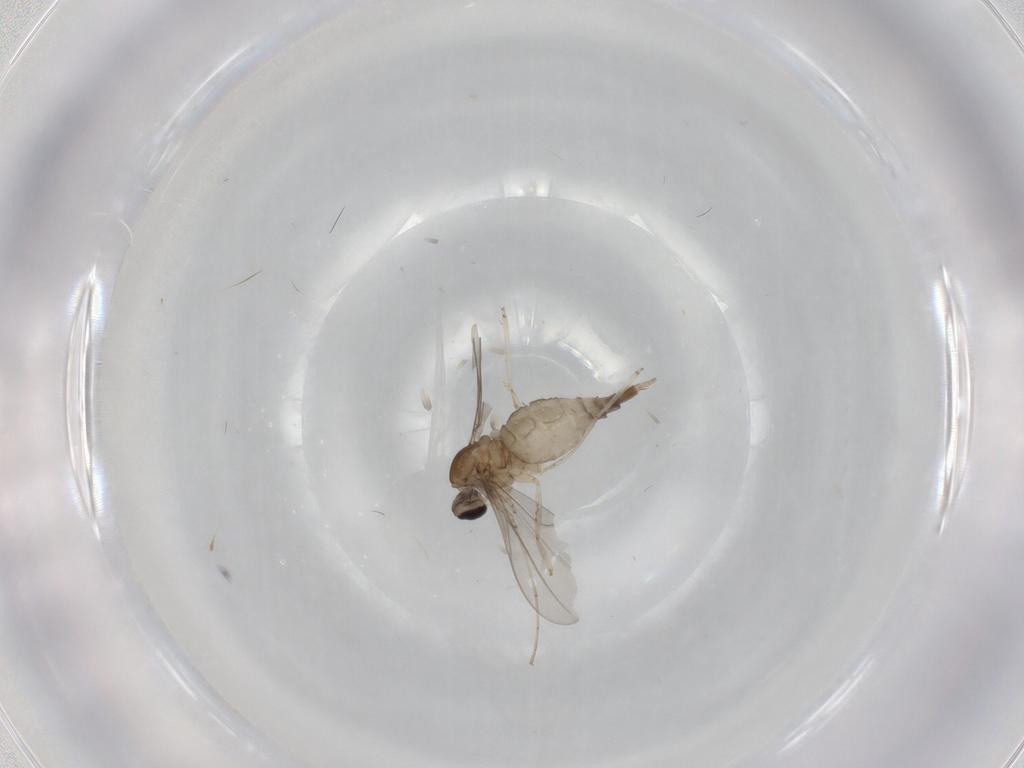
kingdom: Animalia
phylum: Arthropoda
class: Insecta
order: Diptera
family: Cecidomyiidae
